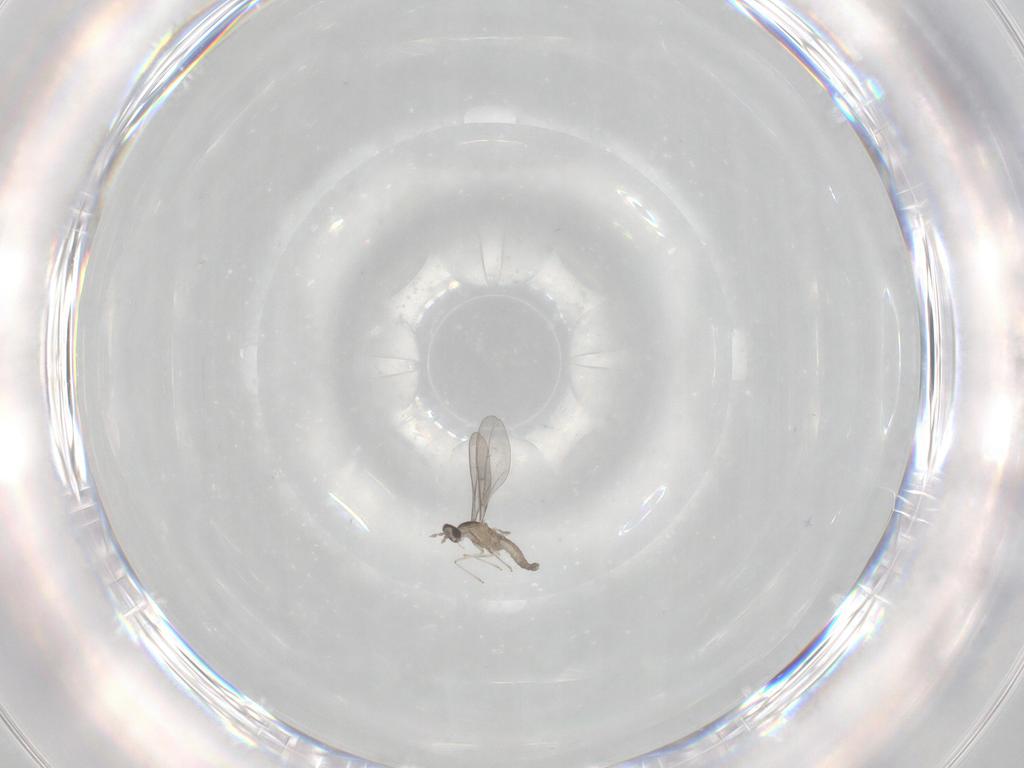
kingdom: Animalia
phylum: Arthropoda
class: Insecta
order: Diptera
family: Cecidomyiidae
